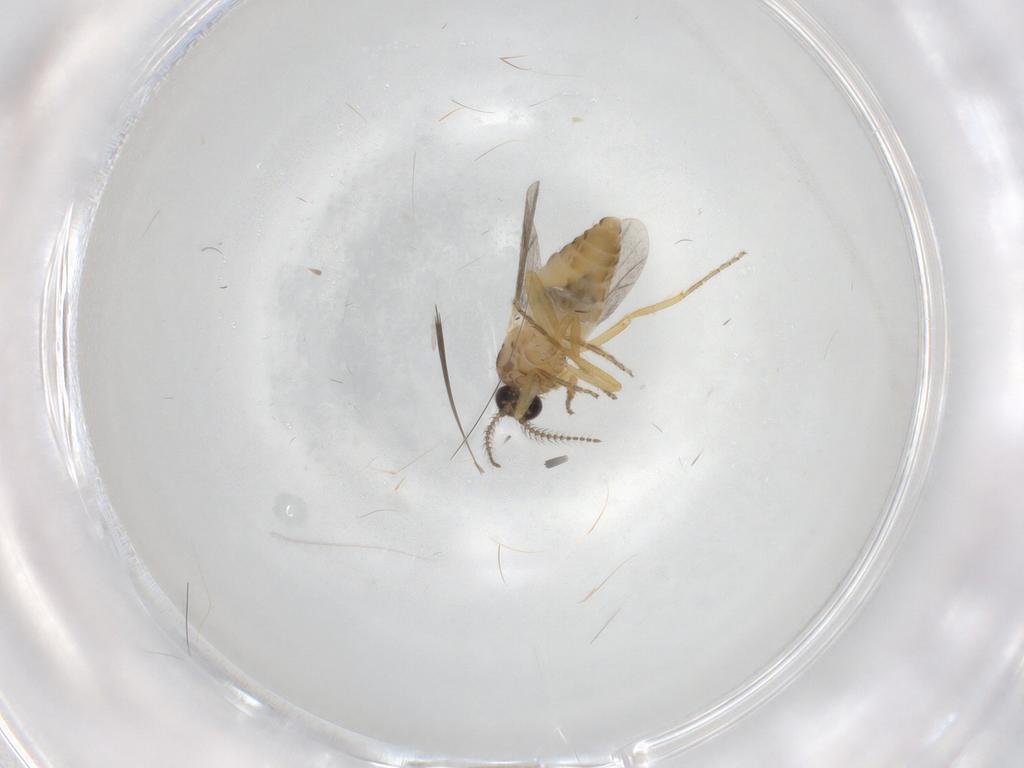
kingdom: Animalia
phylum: Arthropoda
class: Insecta
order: Diptera
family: Ceratopogonidae
